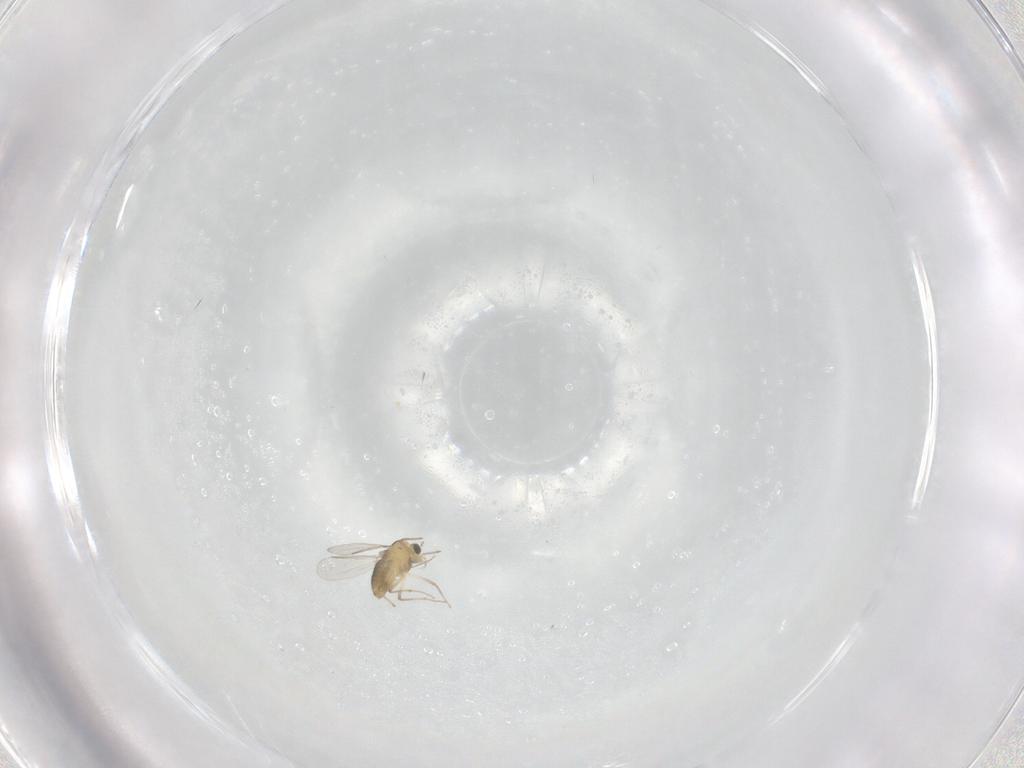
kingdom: Animalia
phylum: Arthropoda
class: Insecta
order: Diptera
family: Chironomidae
